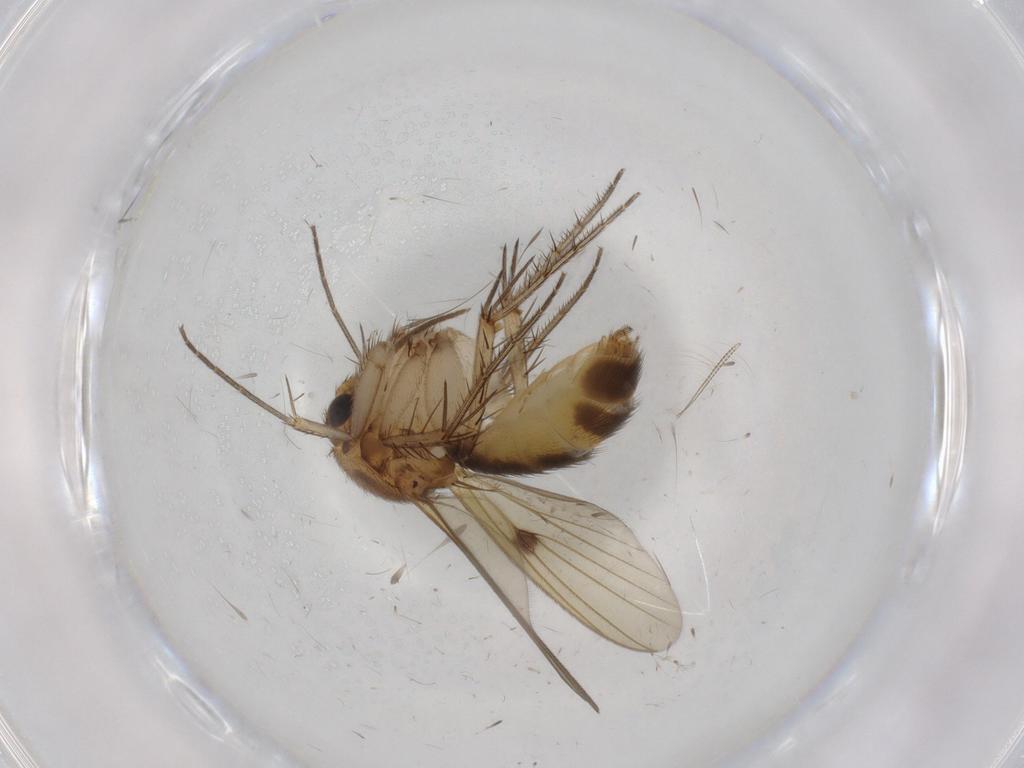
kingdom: Animalia
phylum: Arthropoda
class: Insecta
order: Diptera
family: Mycetophilidae
